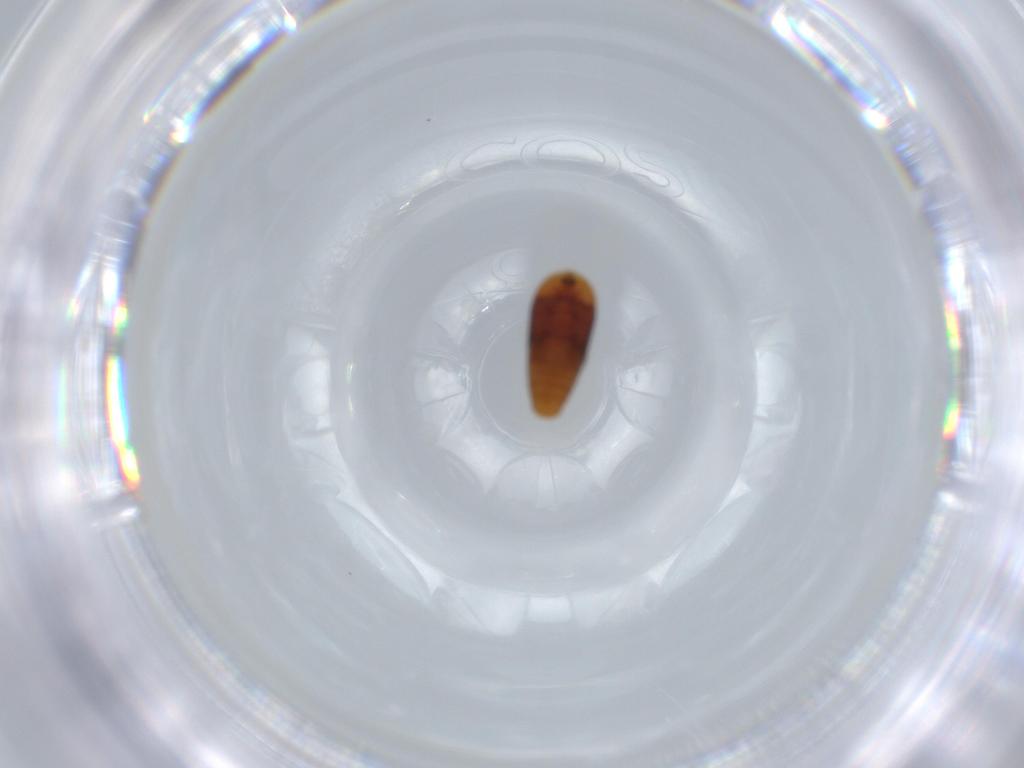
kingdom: Animalia
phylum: Arthropoda
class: Insecta
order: Coleoptera
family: Corylophidae
